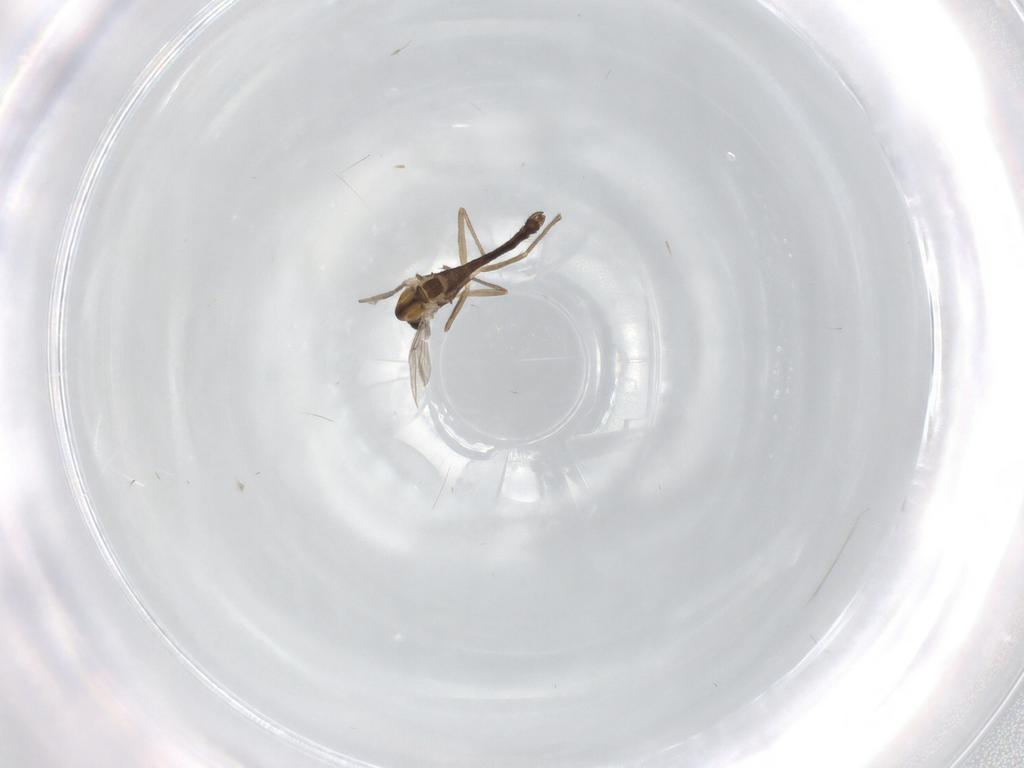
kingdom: Animalia
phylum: Arthropoda
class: Insecta
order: Diptera
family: Chironomidae
